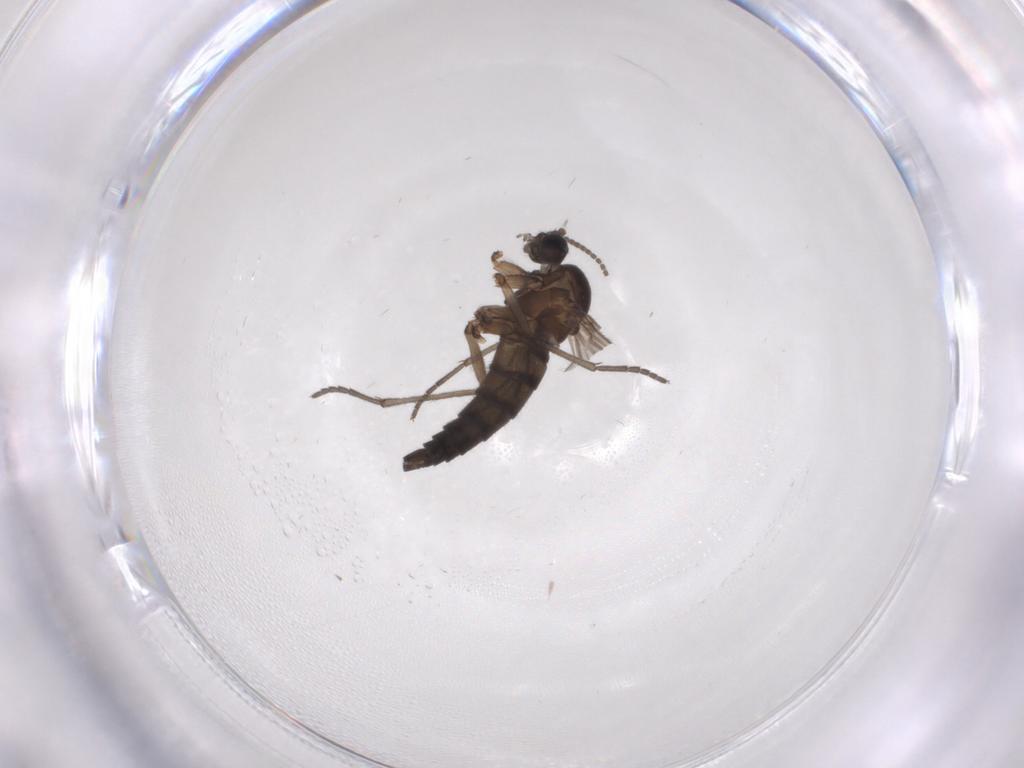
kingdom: Animalia
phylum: Arthropoda
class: Insecta
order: Diptera
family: Sciaridae
